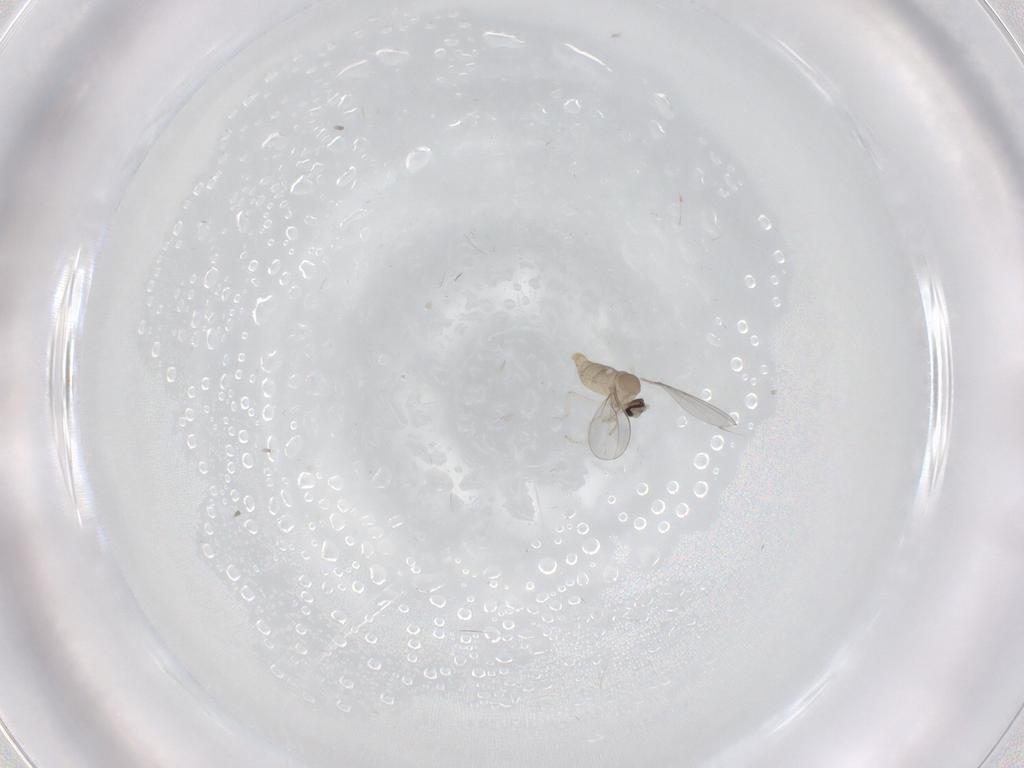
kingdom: Animalia
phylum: Arthropoda
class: Insecta
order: Diptera
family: Cecidomyiidae
